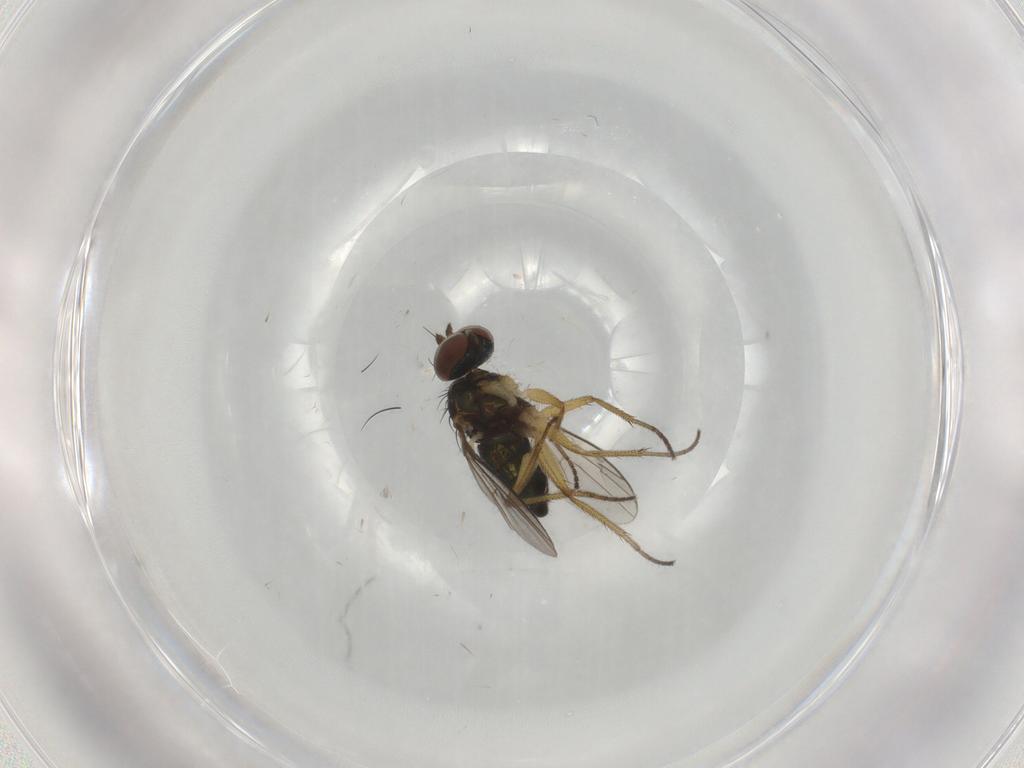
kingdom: Animalia
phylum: Arthropoda
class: Insecta
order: Diptera
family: Dolichopodidae
